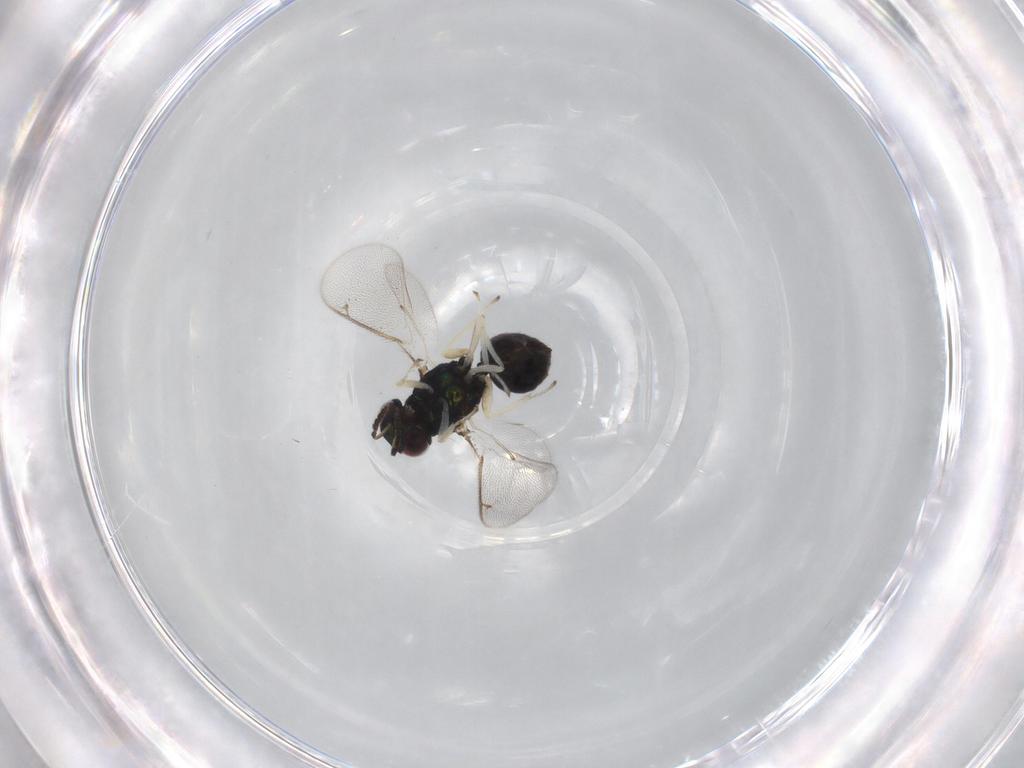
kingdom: Animalia
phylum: Arthropoda
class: Insecta
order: Hymenoptera
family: Eulophidae
